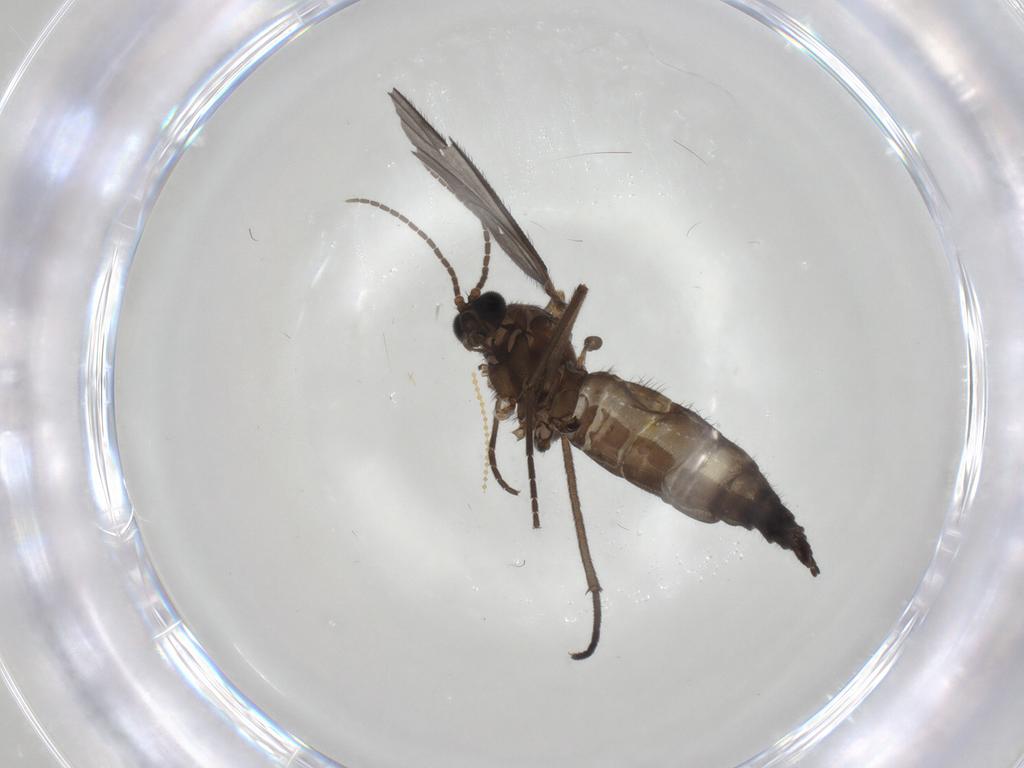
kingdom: Animalia
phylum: Arthropoda
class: Insecta
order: Diptera
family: Sciaridae
